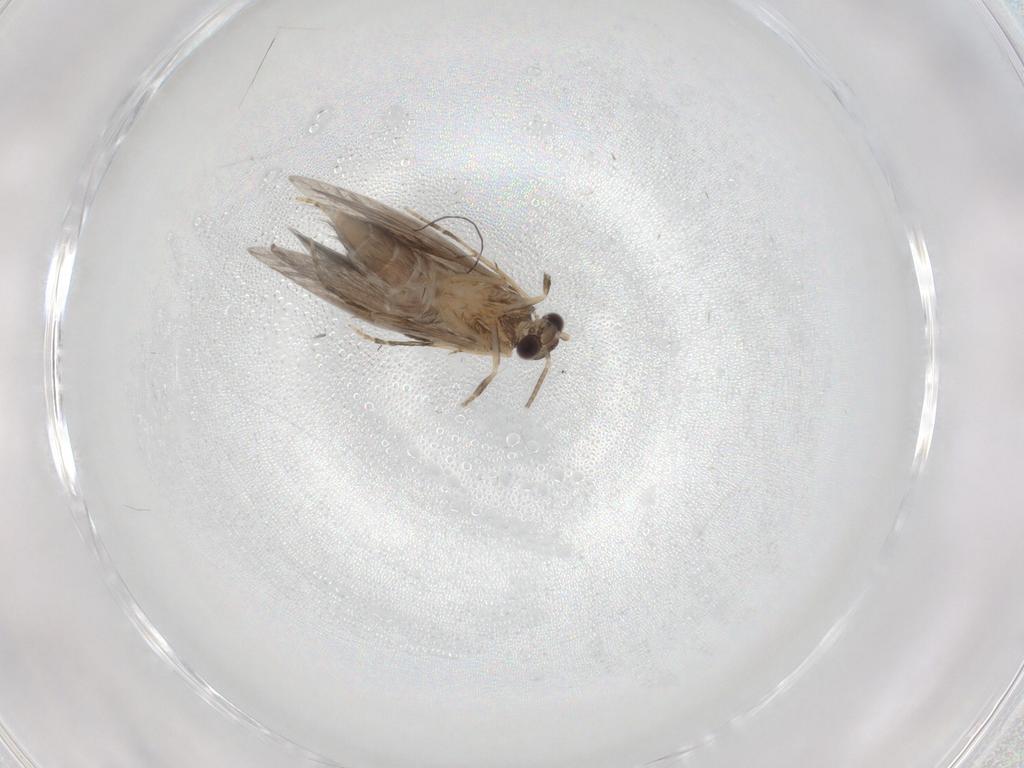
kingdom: Animalia
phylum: Arthropoda
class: Insecta
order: Trichoptera
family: Hydroptilidae
